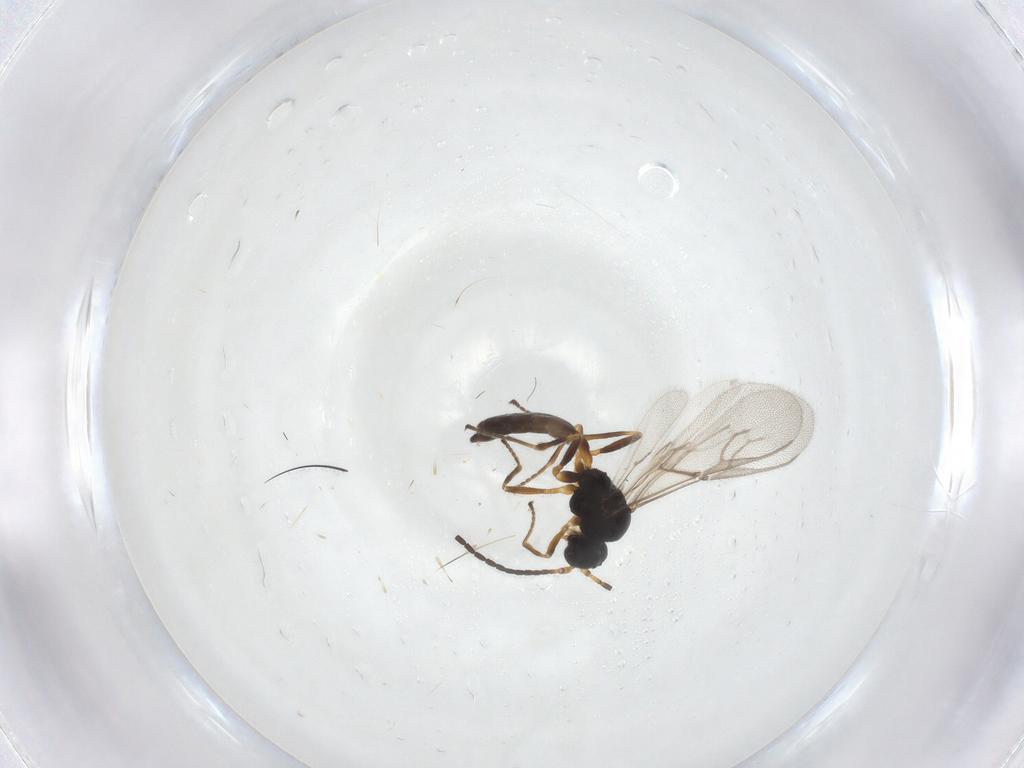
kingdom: Animalia
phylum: Arthropoda
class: Insecta
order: Hymenoptera
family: Braconidae
